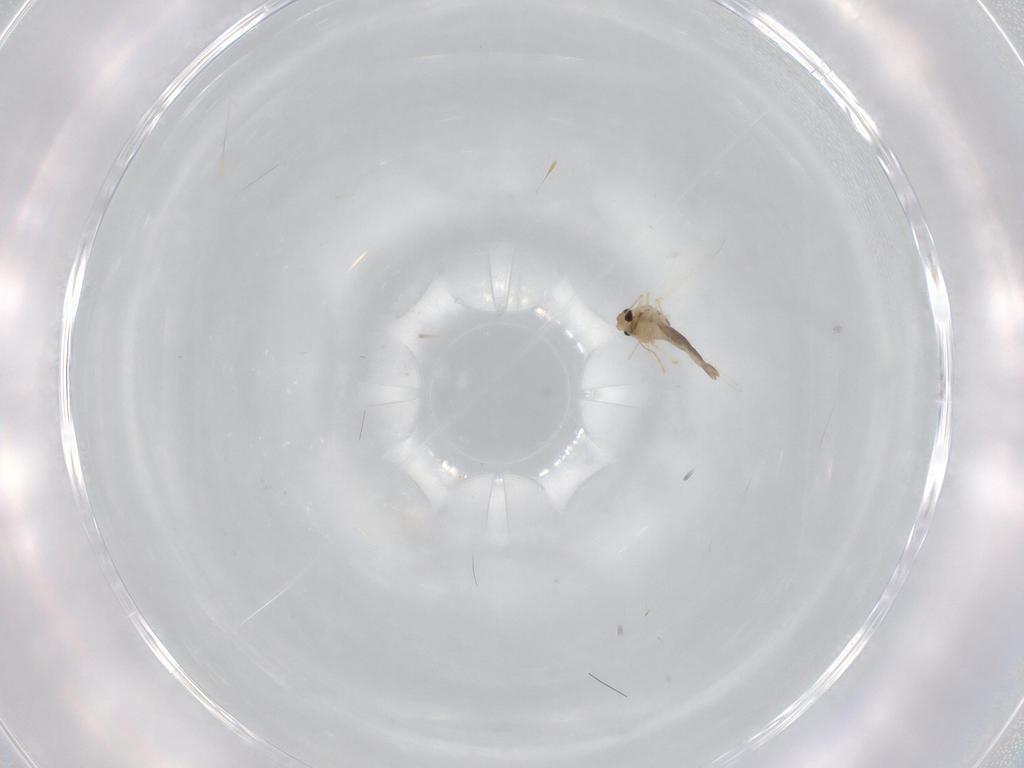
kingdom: Animalia
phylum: Arthropoda
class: Insecta
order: Diptera
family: Chironomidae
